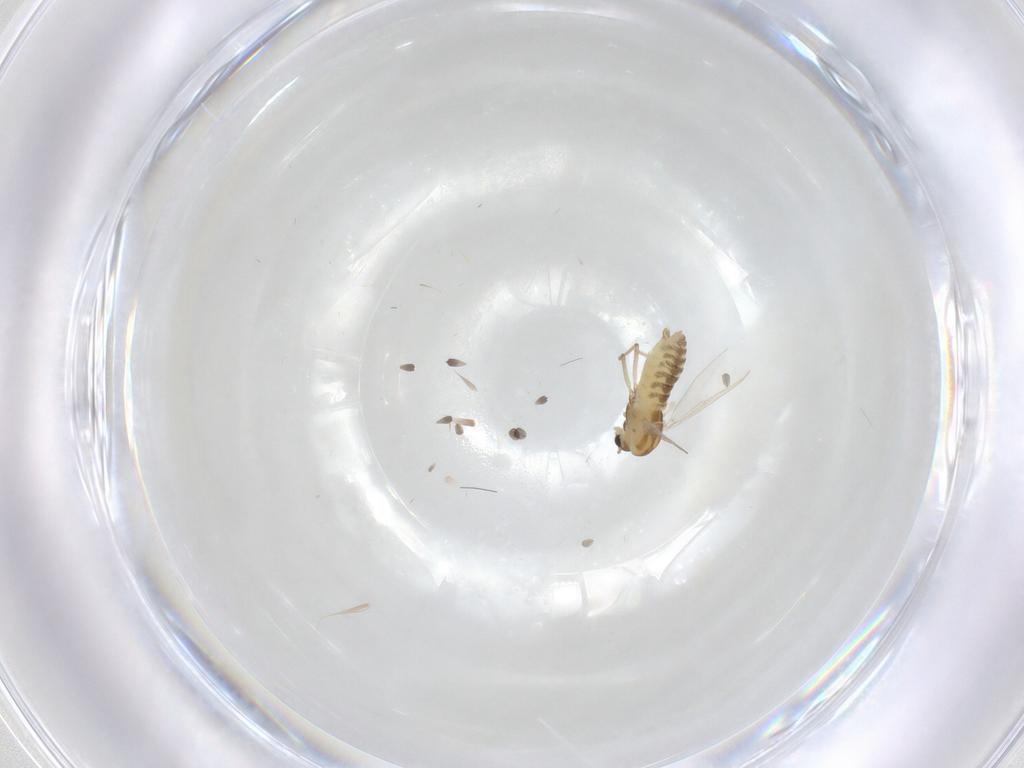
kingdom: Animalia
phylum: Arthropoda
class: Insecta
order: Diptera
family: Chironomidae
